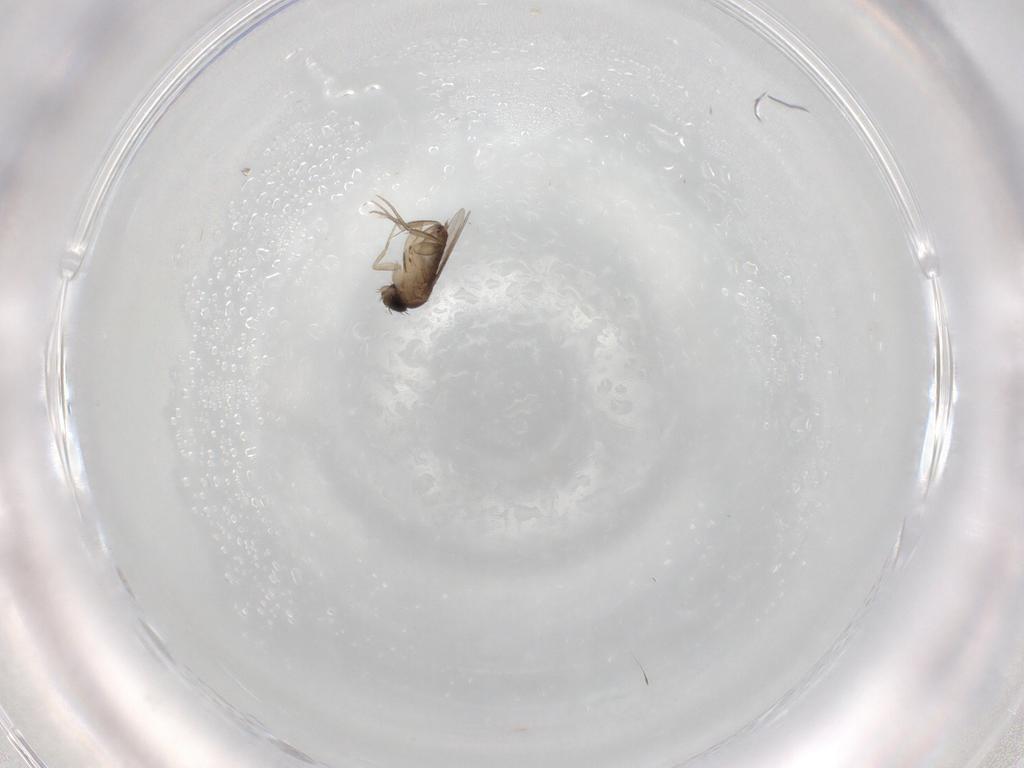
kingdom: Animalia
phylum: Arthropoda
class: Insecta
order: Diptera
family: Phoridae
